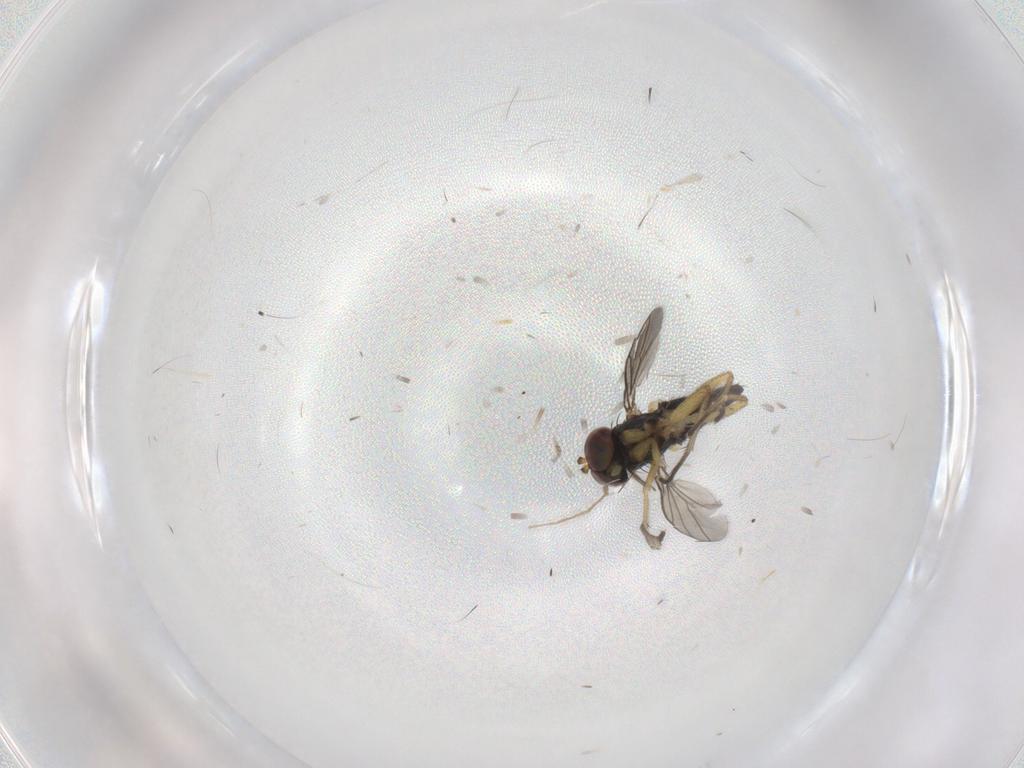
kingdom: Animalia
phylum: Arthropoda
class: Insecta
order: Diptera
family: Dolichopodidae
